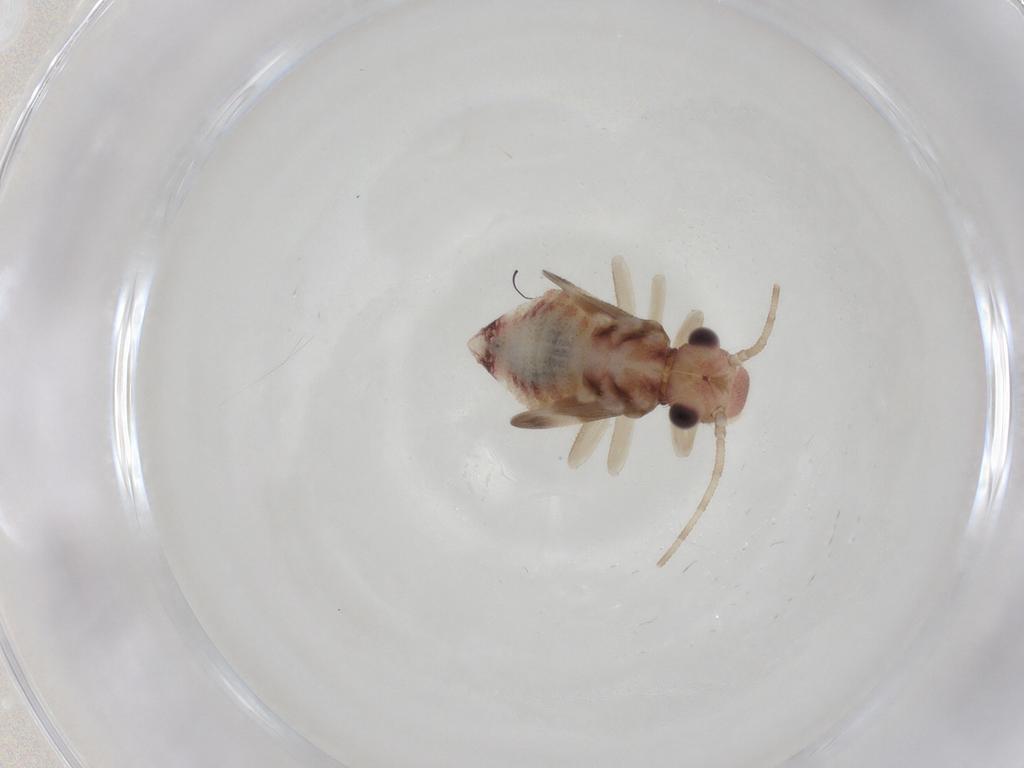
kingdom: Animalia
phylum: Arthropoda
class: Insecta
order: Psocodea
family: Amphipsocidae
